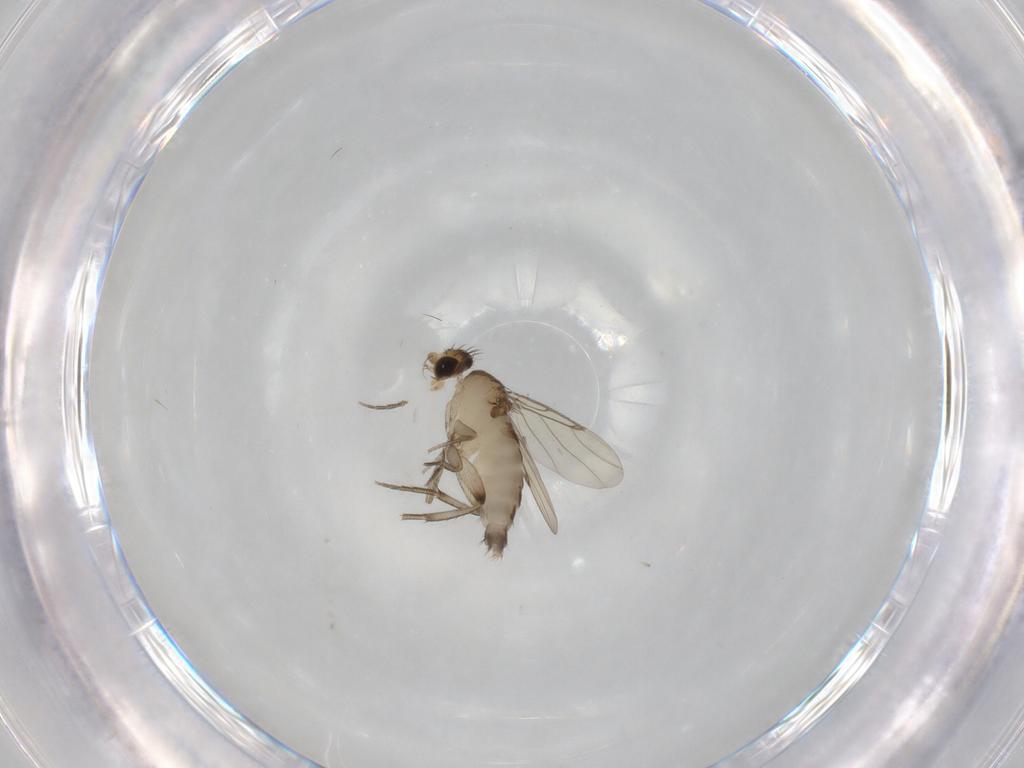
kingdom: Animalia
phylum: Arthropoda
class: Insecta
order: Diptera
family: Phoridae
